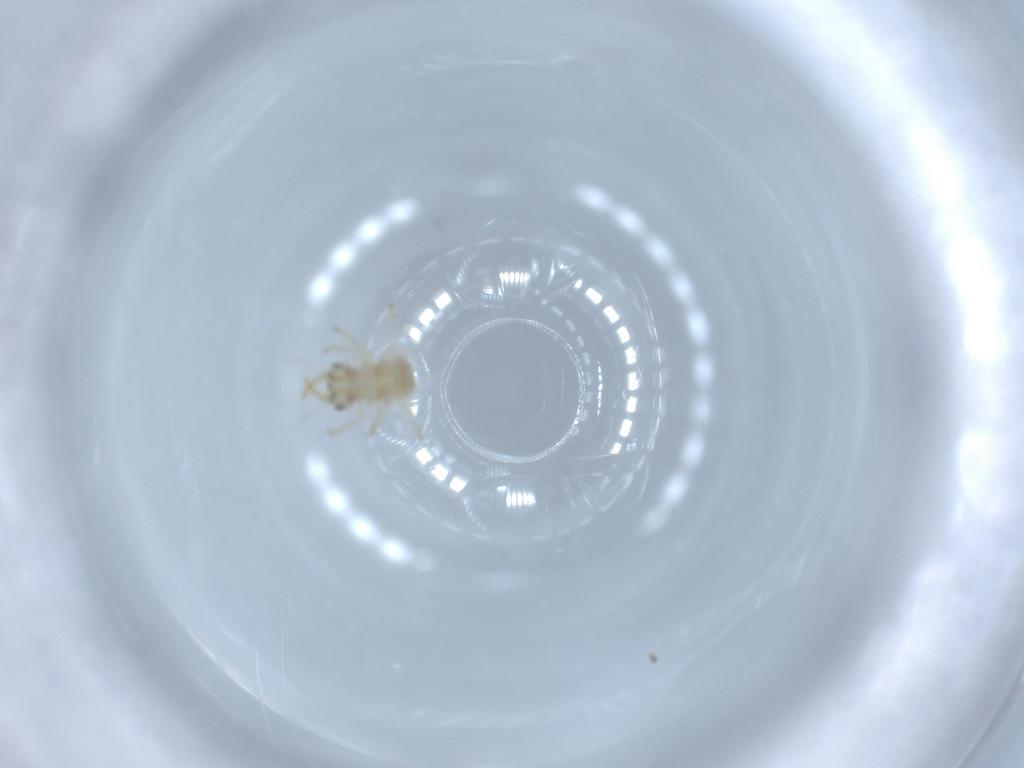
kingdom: Animalia
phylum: Arthropoda
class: Insecta
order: Neuroptera
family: Chrysopidae
